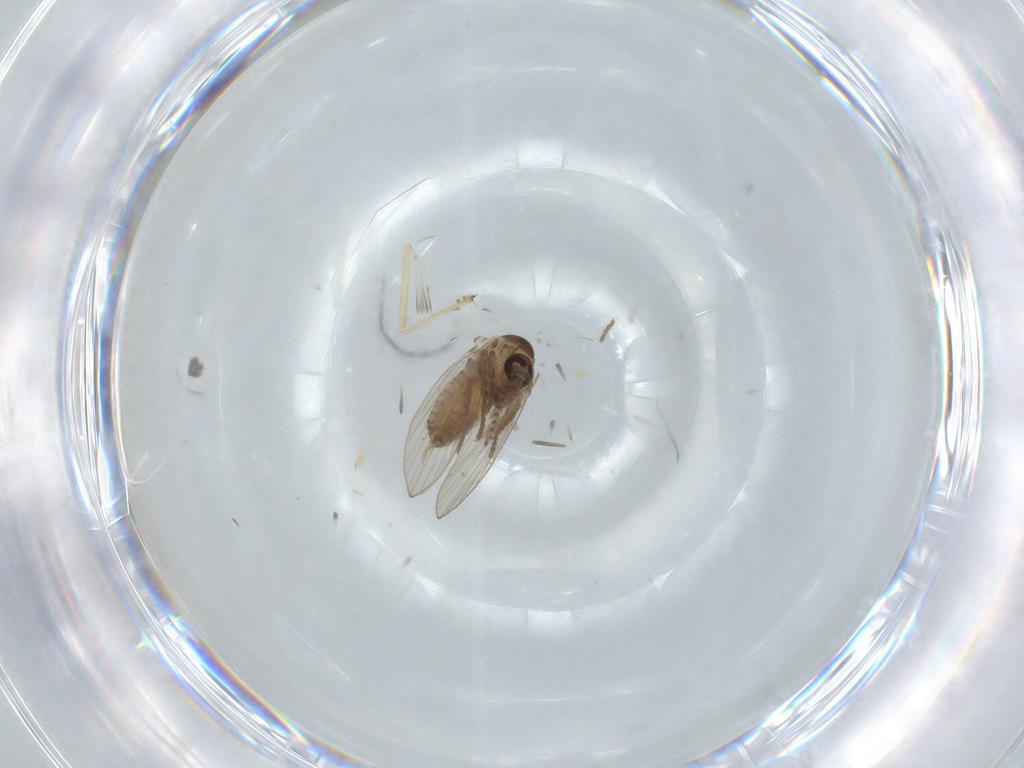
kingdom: Animalia
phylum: Arthropoda
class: Insecta
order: Diptera
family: Psychodidae
